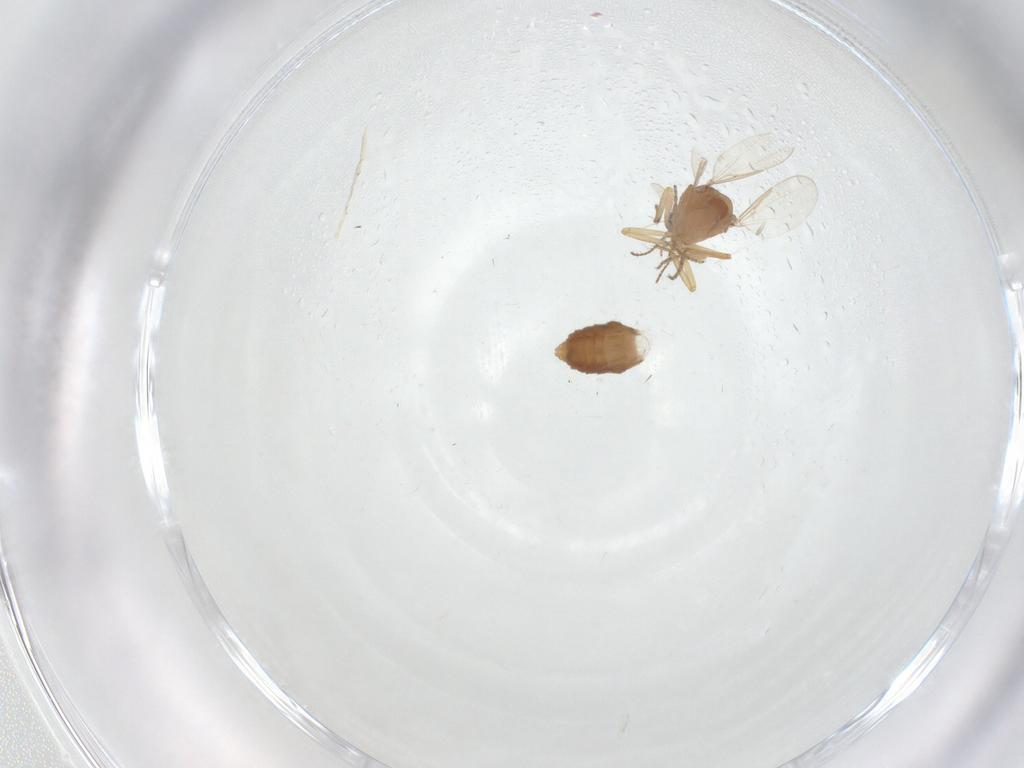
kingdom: Animalia
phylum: Arthropoda
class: Insecta
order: Diptera
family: Ceratopogonidae
